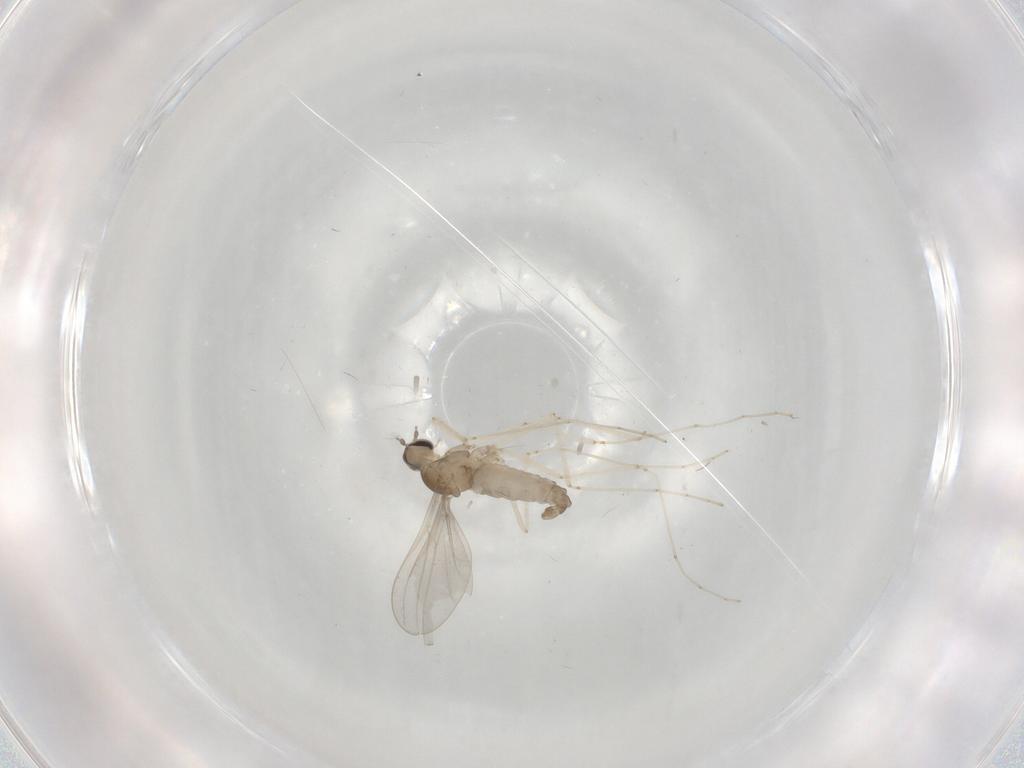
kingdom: Animalia
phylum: Arthropoda
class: Insecta
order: Diptera
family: Cecidomyiidae
